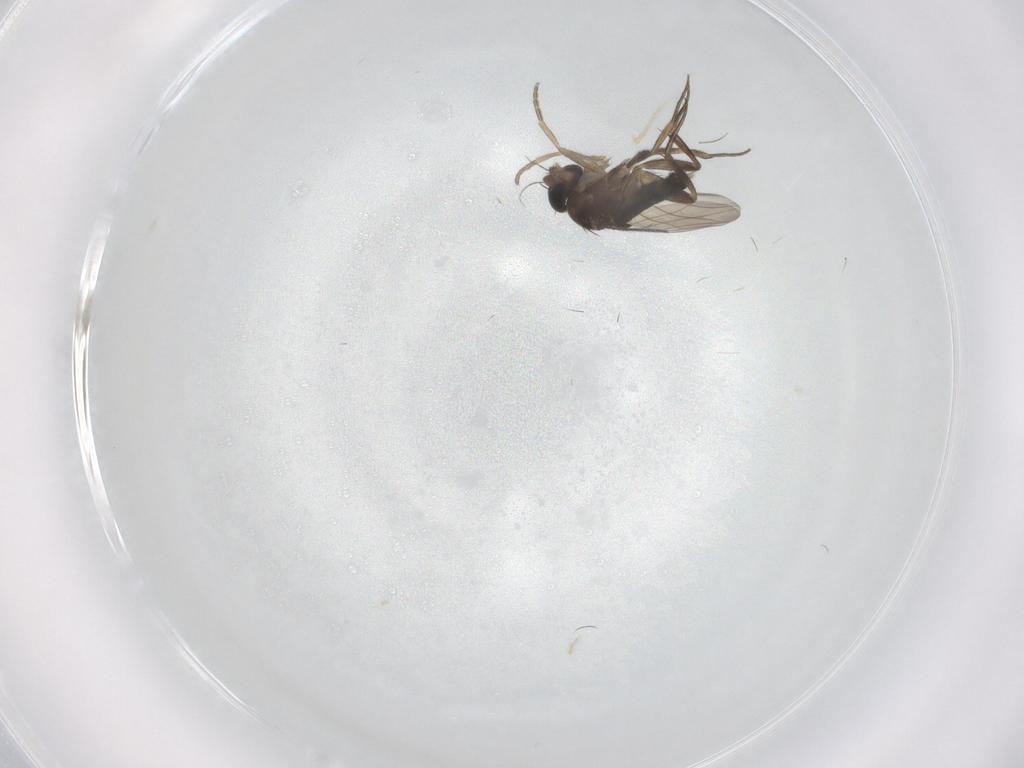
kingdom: Animalia
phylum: Arthropoda
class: Insecta
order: Diptera
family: Phoridae
